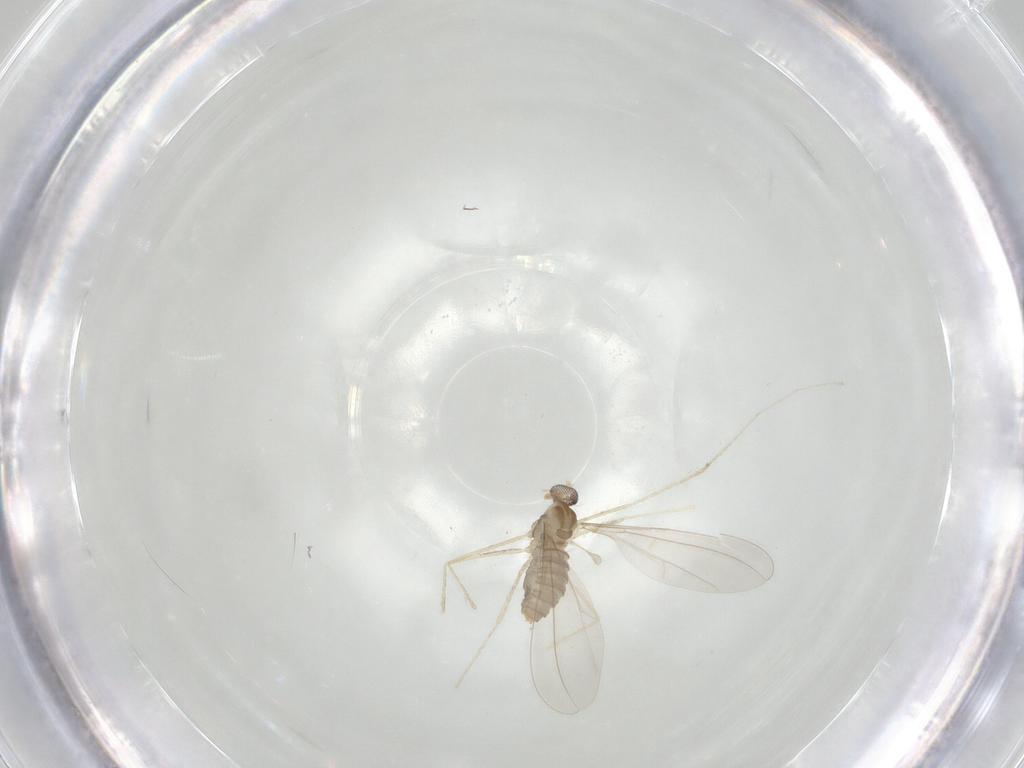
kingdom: Animalia
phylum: Arthropoda
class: Insecta
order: Diptera
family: Cecidomyiidae
